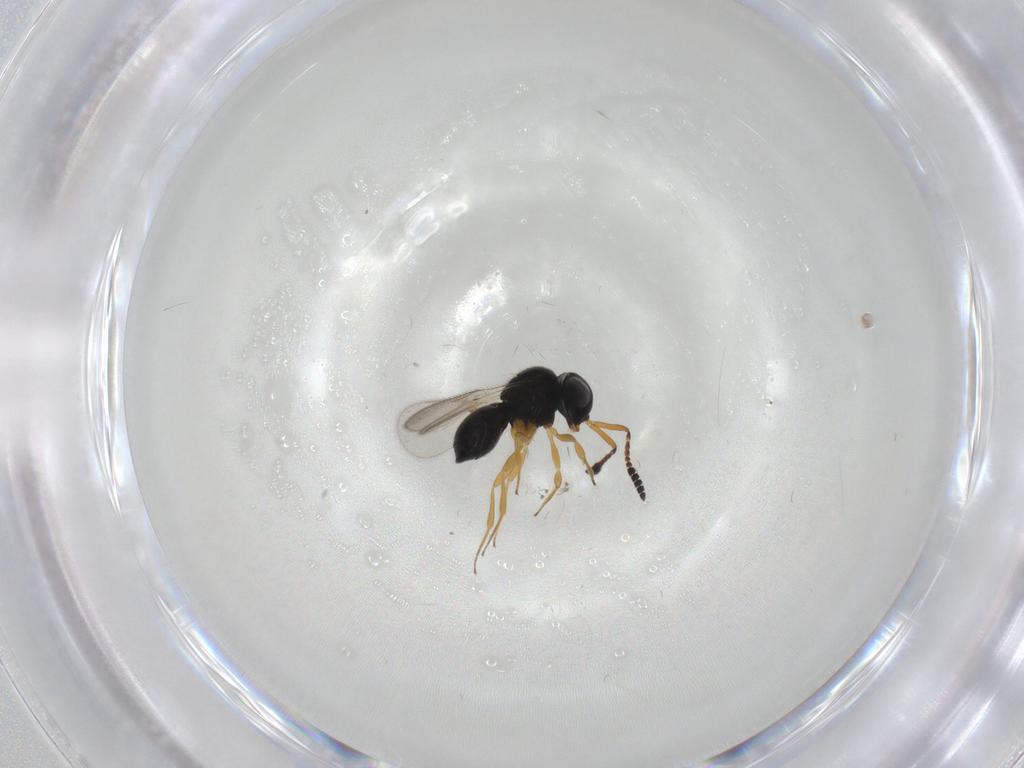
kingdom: Animalia
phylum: Arthropoda
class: Insecta
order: Hymenoptera
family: Scelionidae
